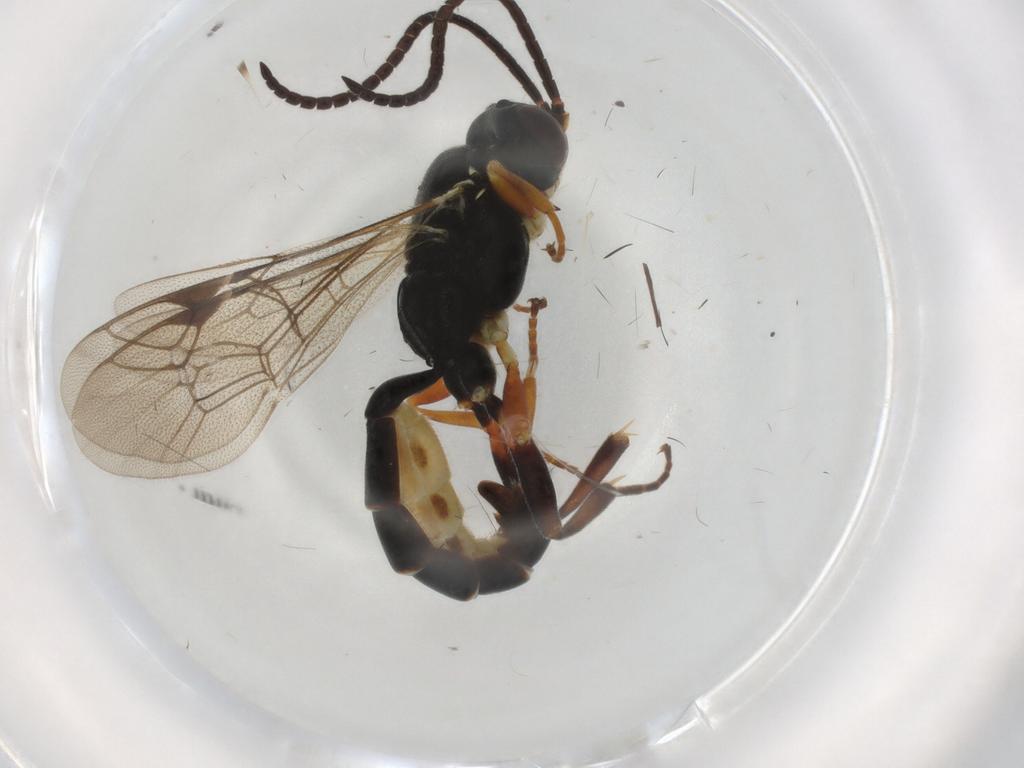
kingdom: Animalia
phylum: Arthropoda
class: Insecta
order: Hymenoptera
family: Ichneumonidae
